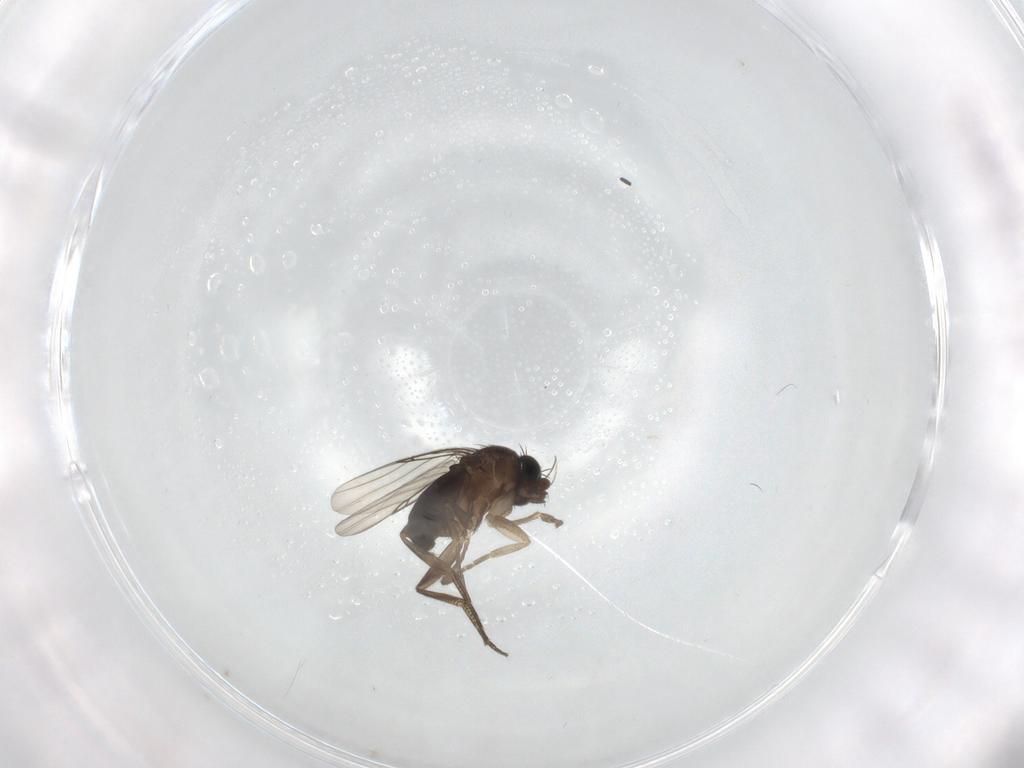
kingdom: Animalia
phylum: Arthropoda
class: Insecta
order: Diptera
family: Phoridae
